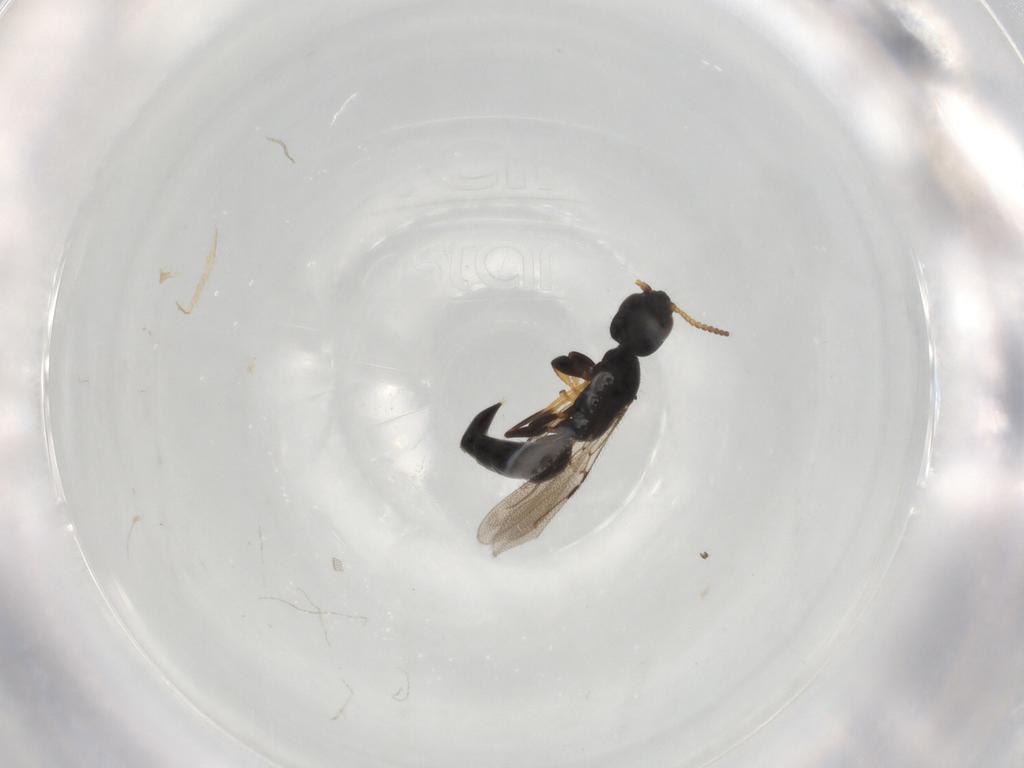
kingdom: Animalia
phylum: Arthropoda
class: Insecta
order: Hymenoptera
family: Bethylidae
